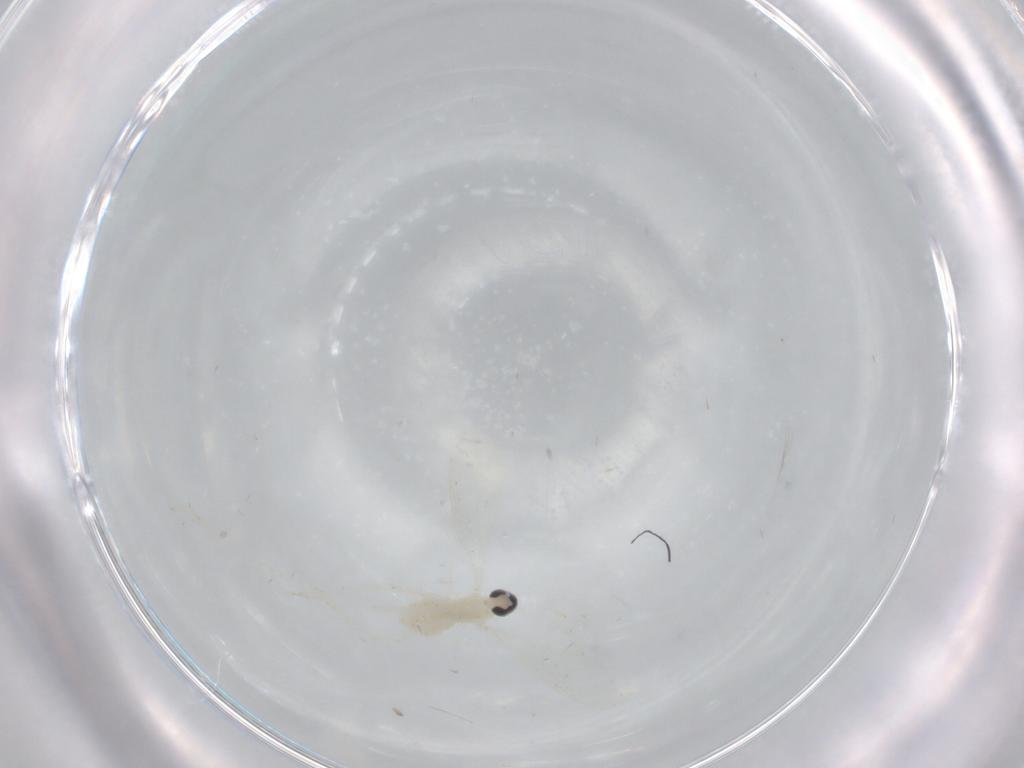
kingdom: Animalia
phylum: Arthropoda
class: Insecta
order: Diptera
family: Cecidomyiidae
